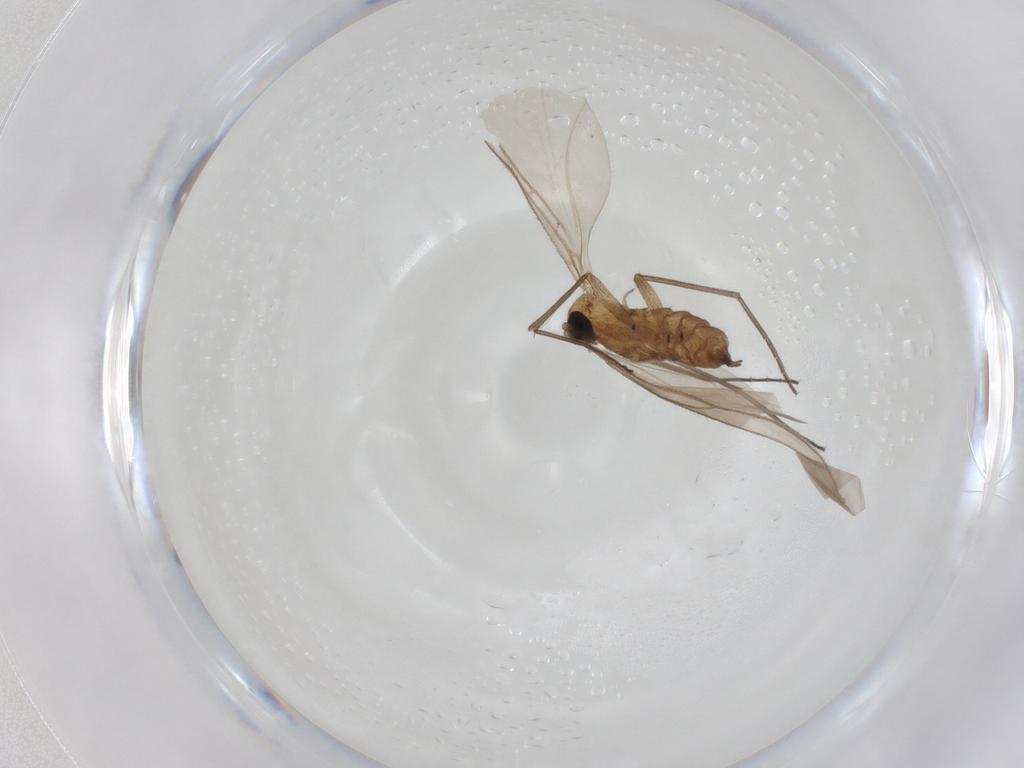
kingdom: Animalia
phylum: Arthropoda
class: Insecta
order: Diptera
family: Sciaridae
